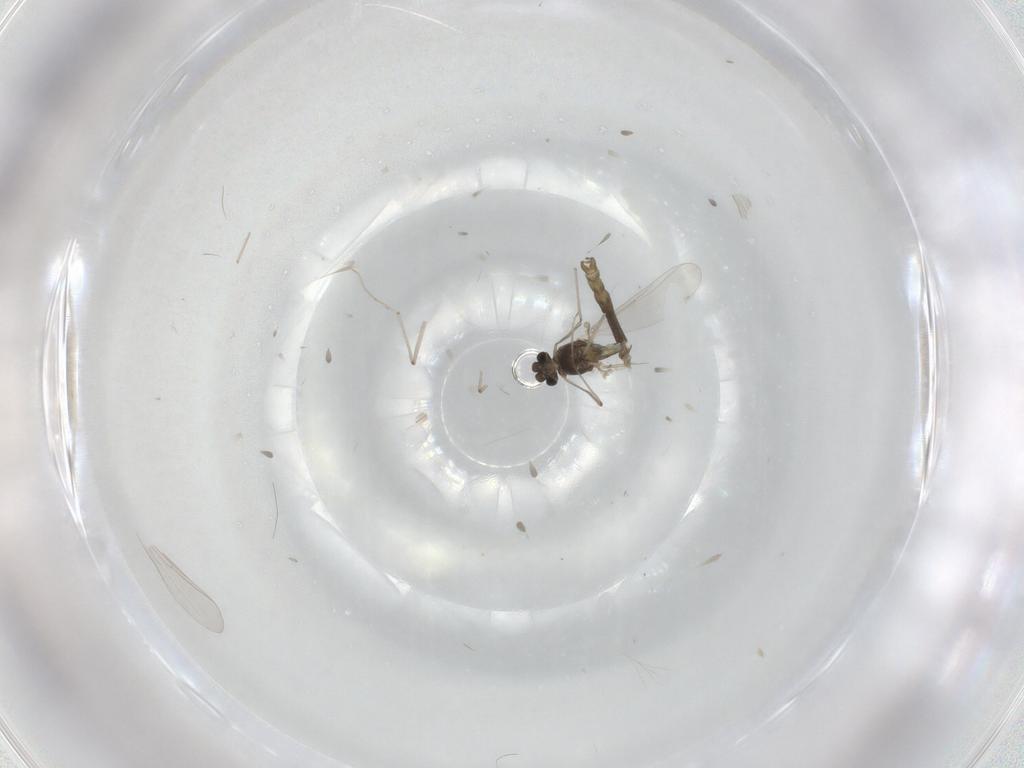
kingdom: Animalia
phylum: Arthropoda
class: Insecta
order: Diptera
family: Chironomidae
